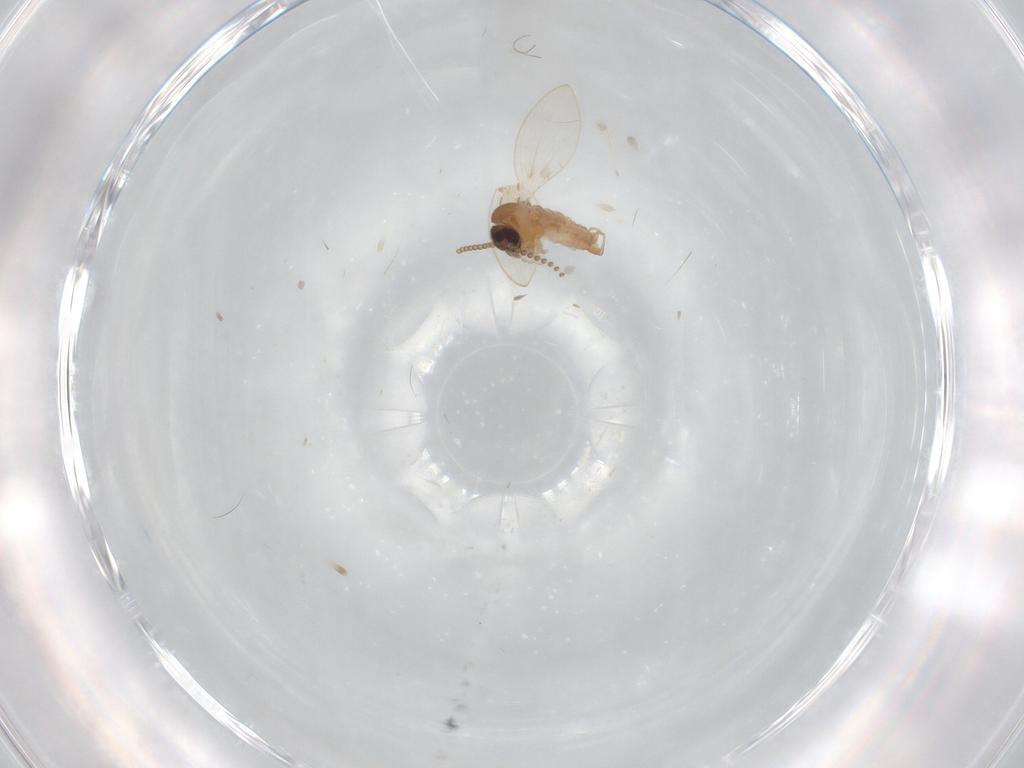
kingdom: Animalia
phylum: Arthropoda
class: Insecta
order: Diptera
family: Psychodidae
